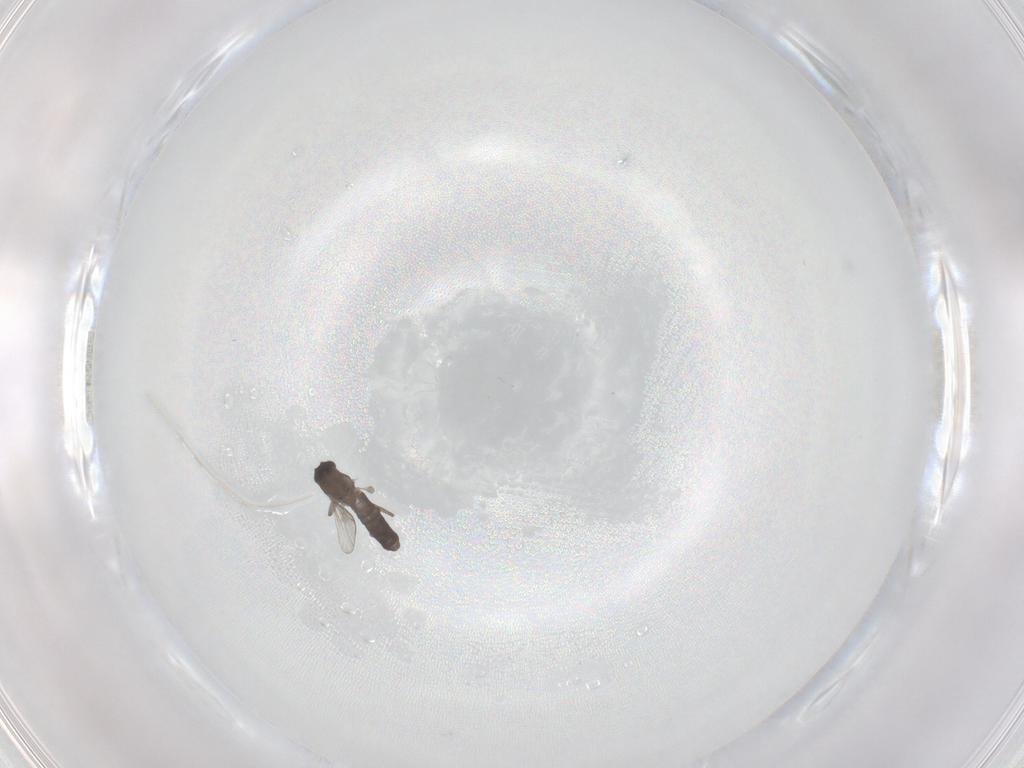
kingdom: Animalia
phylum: Arthropoda
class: Insecta
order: Diptera
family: Chironomidae
